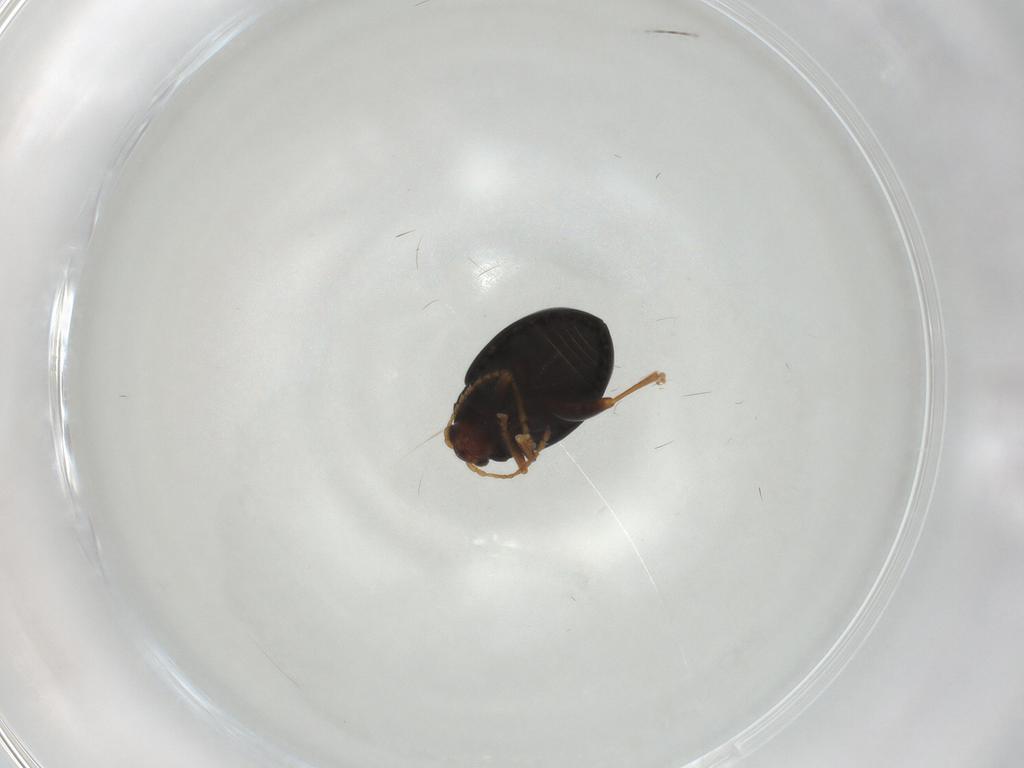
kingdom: Animalia
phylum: Arthropoda
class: Insecta
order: Coleoptera
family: Chrysomelidae
